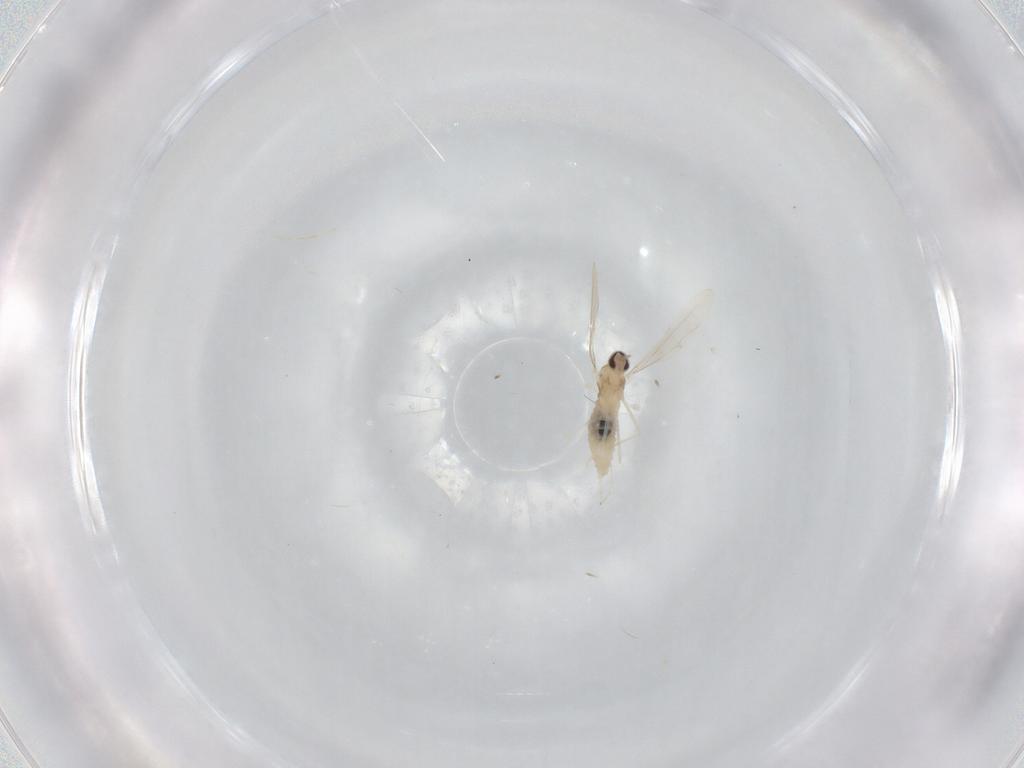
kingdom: Animalia
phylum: Arthropoda
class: Insecta
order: Diptera
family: Cecidomyiidae
